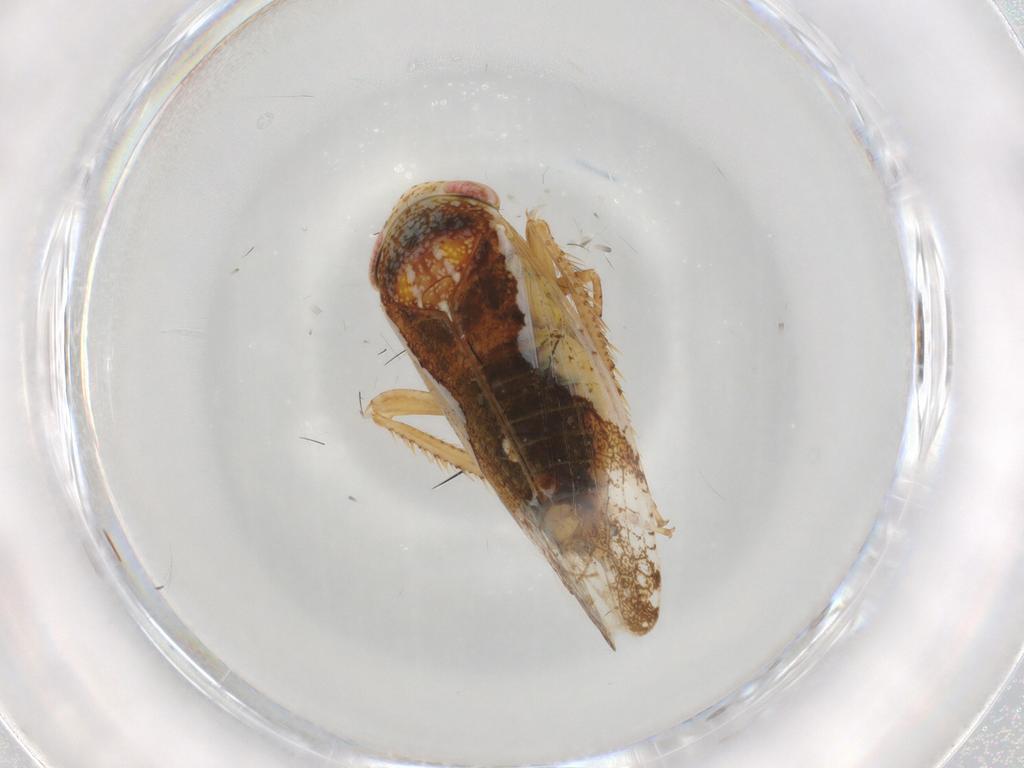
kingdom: Animalia
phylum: Arthropoda
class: Insecta
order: Hemiptera
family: Cicadellidae
